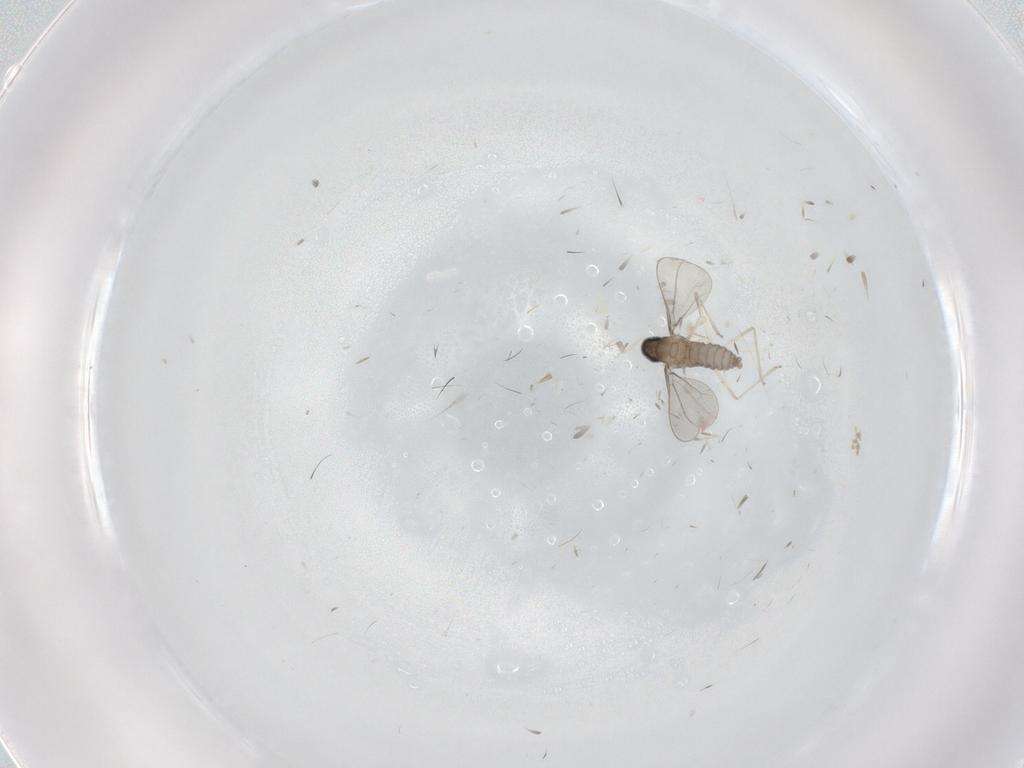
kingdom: Animalia
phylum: Arthropoda
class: Insecta
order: Diptera
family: Cecidomyiidae
